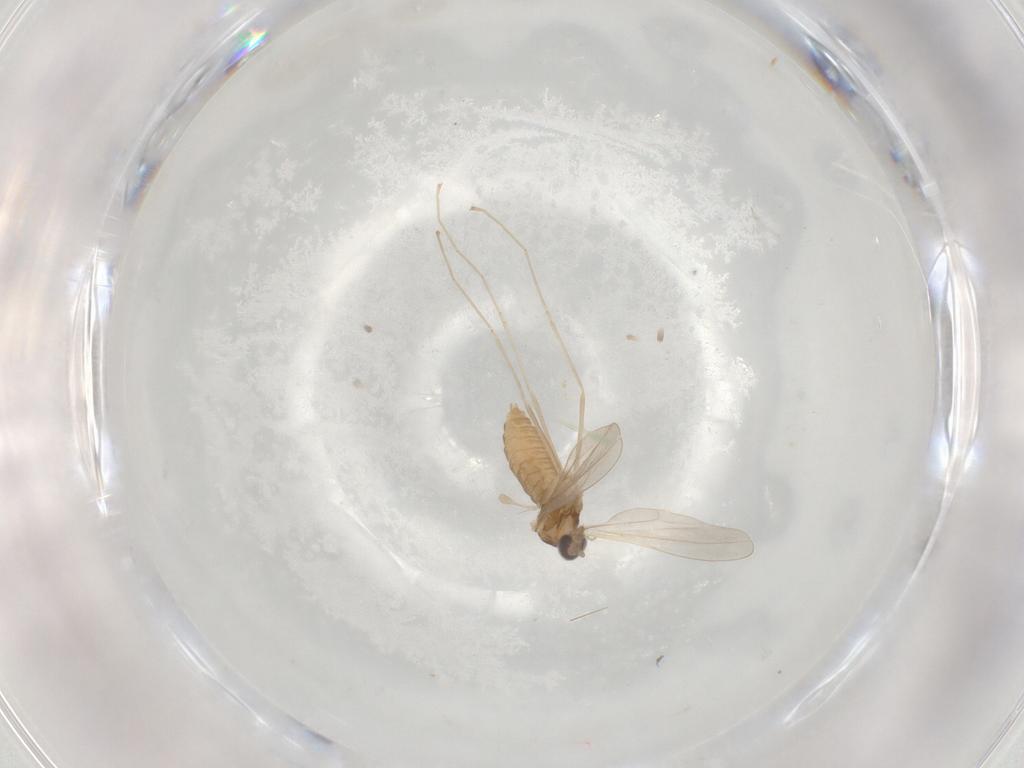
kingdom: Animalia
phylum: Arthropoda
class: Insecta
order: Diptera
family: Cecidomyiidae
